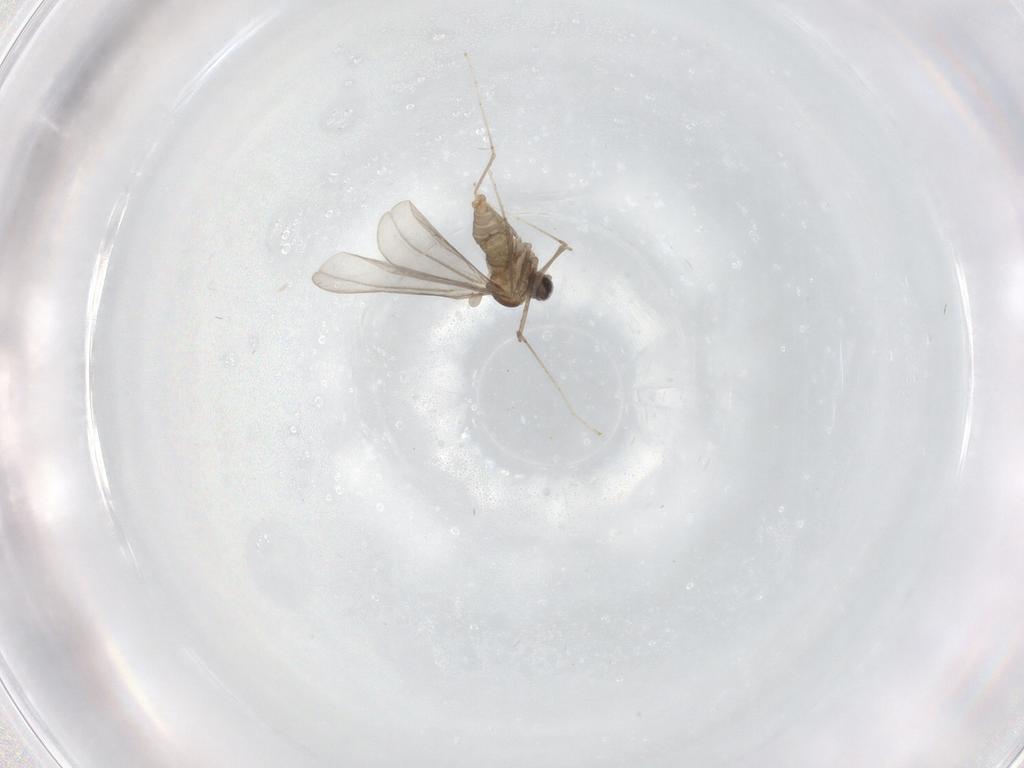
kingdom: Animalia
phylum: Arthropoda
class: Insecta
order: Diptera
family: Cecidomyiidae
